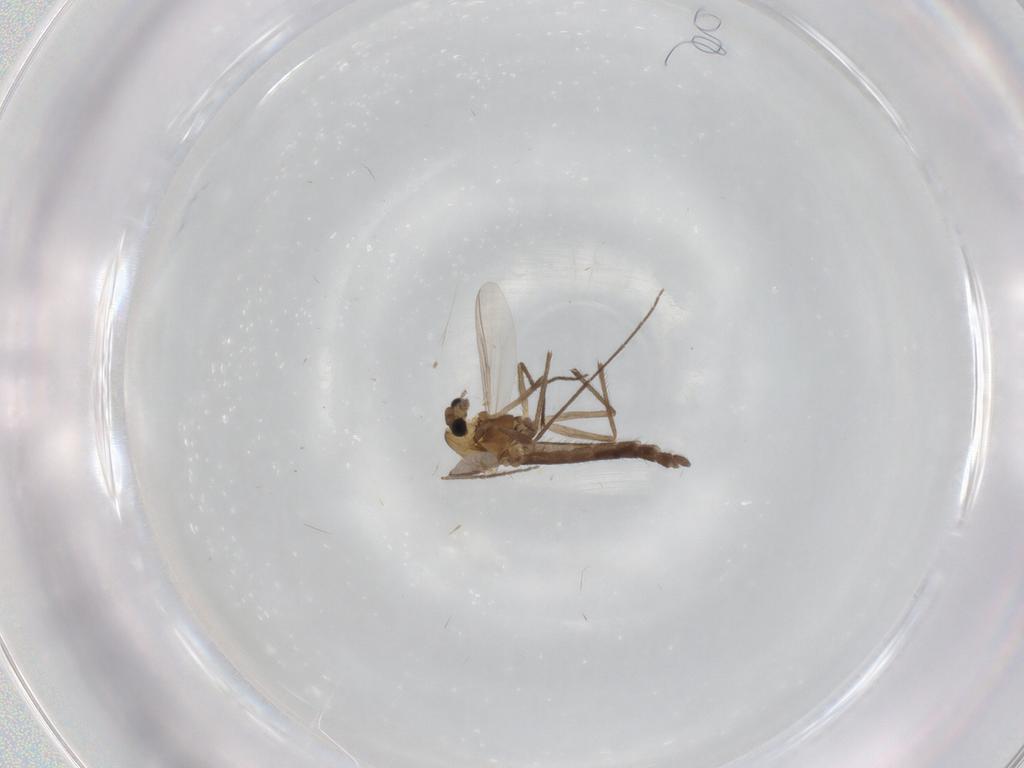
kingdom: Animalia
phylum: Arthropoda
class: Insecta
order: Diptera
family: Chironomidae
